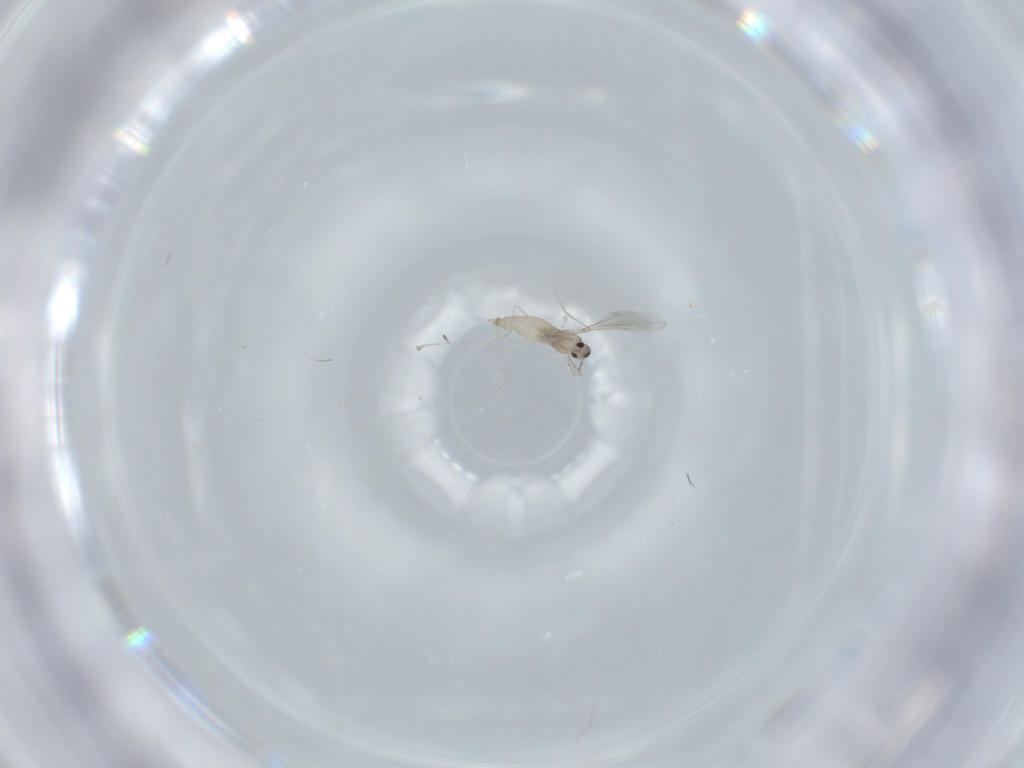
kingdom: Animalia
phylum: Arthropoda
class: Insecta
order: Diptera
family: Cecidomyiidae
